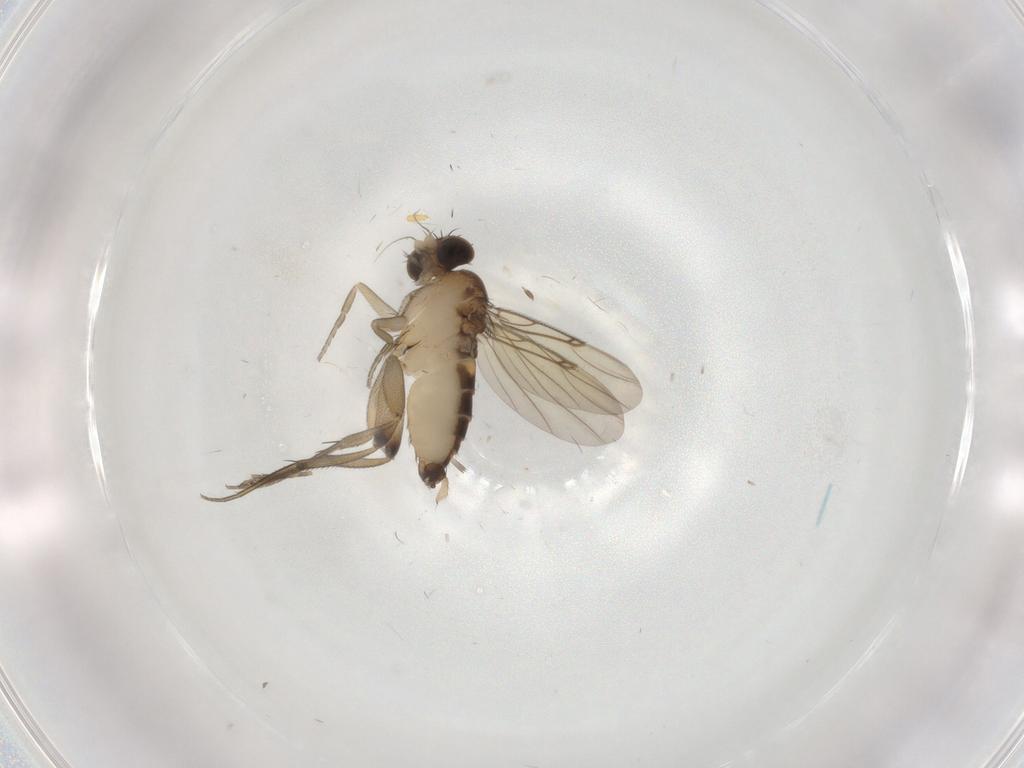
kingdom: Animalia
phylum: Arthropoda
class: Insecta
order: Diptera
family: Phoridae
